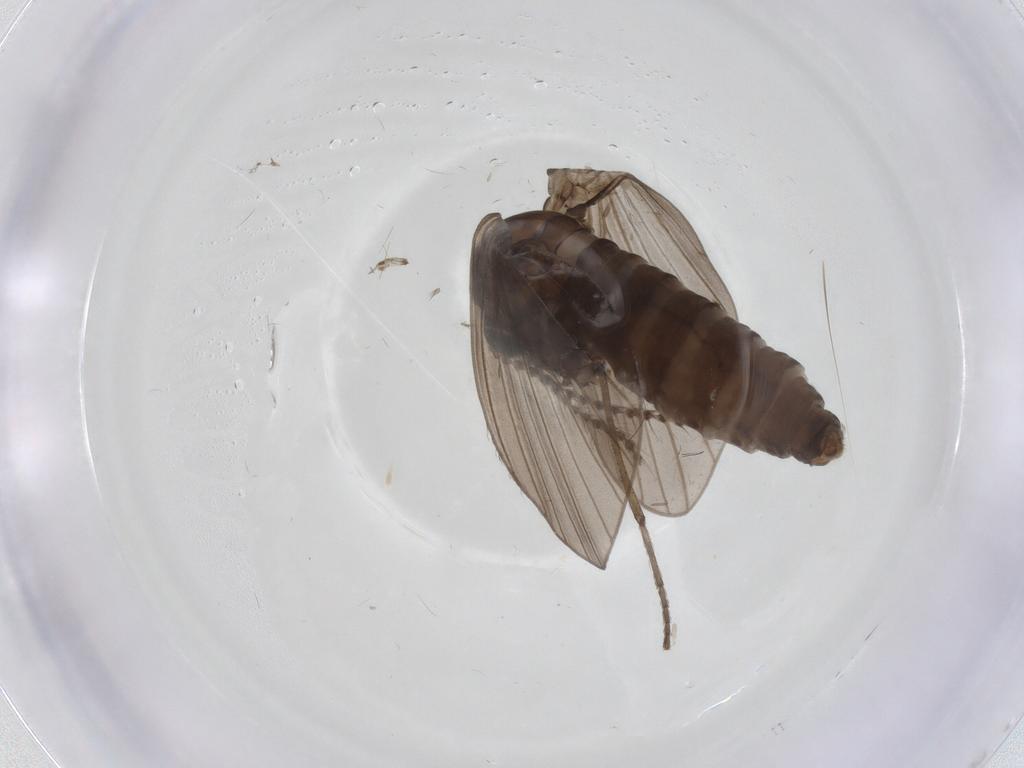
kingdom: Animalia
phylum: Arthropoda
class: Insecta
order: Diptera
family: Psychodidae
